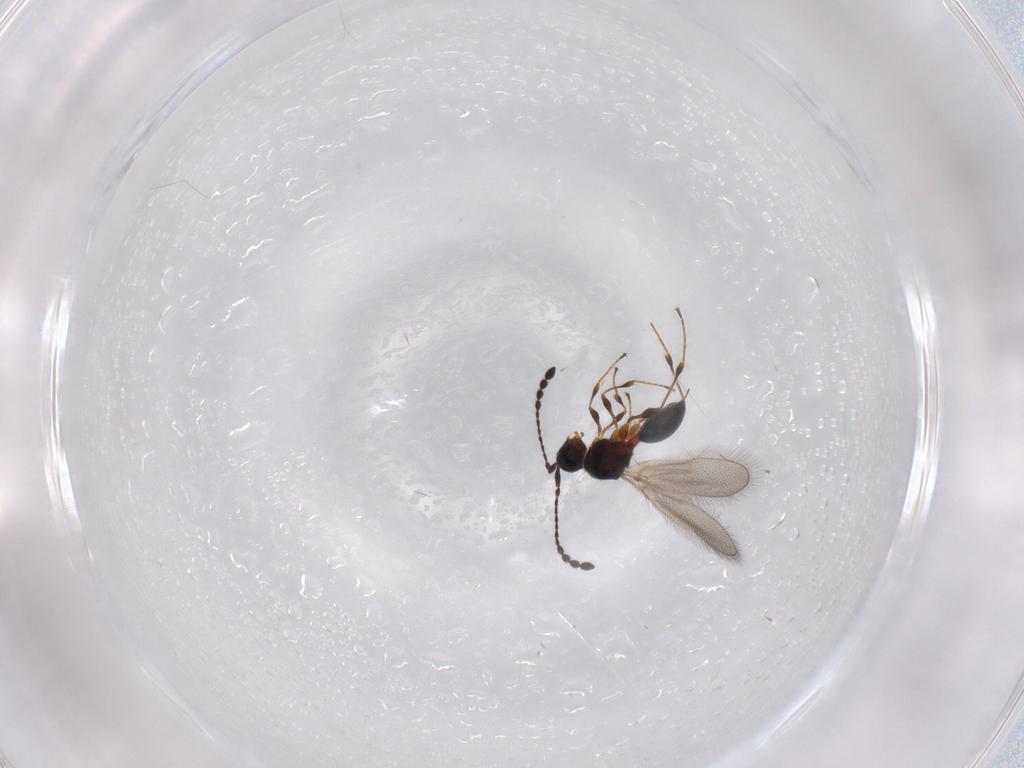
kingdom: Animalia
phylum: Arthropoda
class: Insecta
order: Hymenoptera
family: Diapriidae
